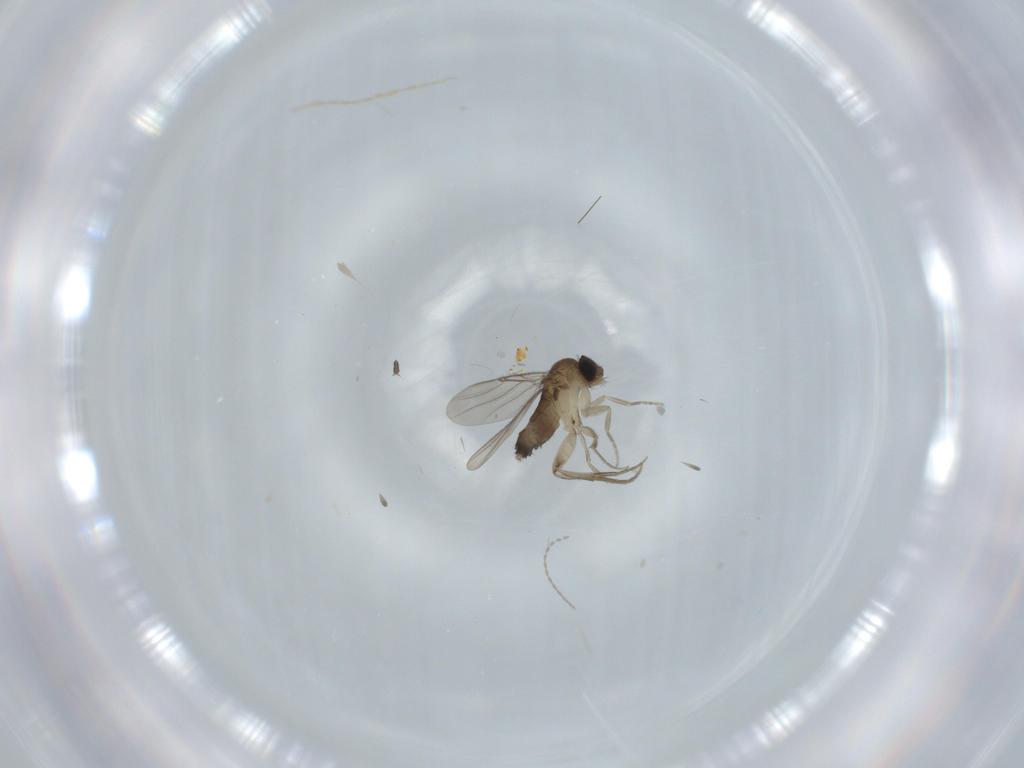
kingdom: Animalia
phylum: Arthropoda
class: Insecta
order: Diptera
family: Phoridae
